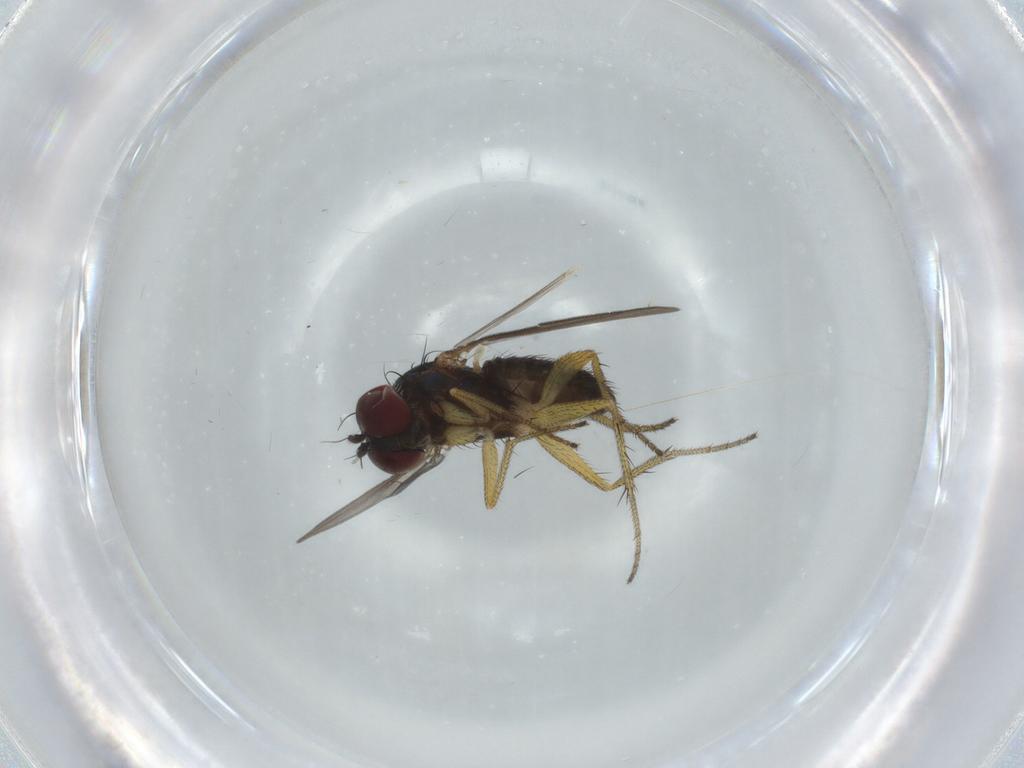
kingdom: Animalia
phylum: Arthropoda
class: Insecta
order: Diptera
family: Dolichopodidae
